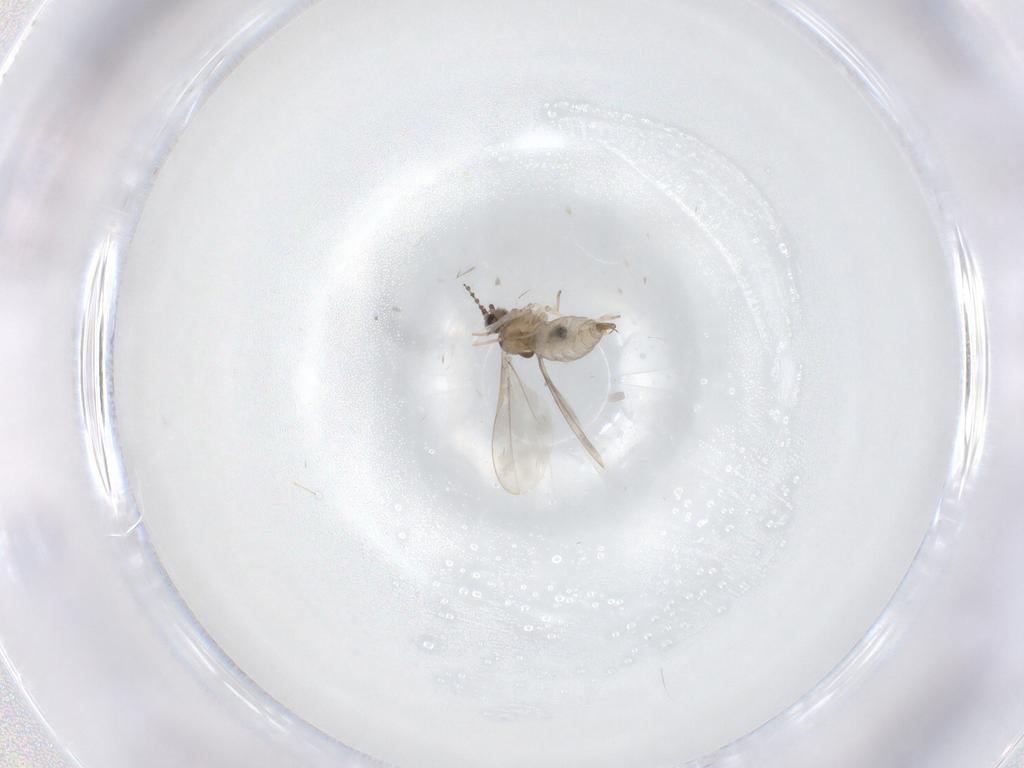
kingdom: Animalia
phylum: Arthropoda
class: Insecta
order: Diptera
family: Cecidomyiidae
